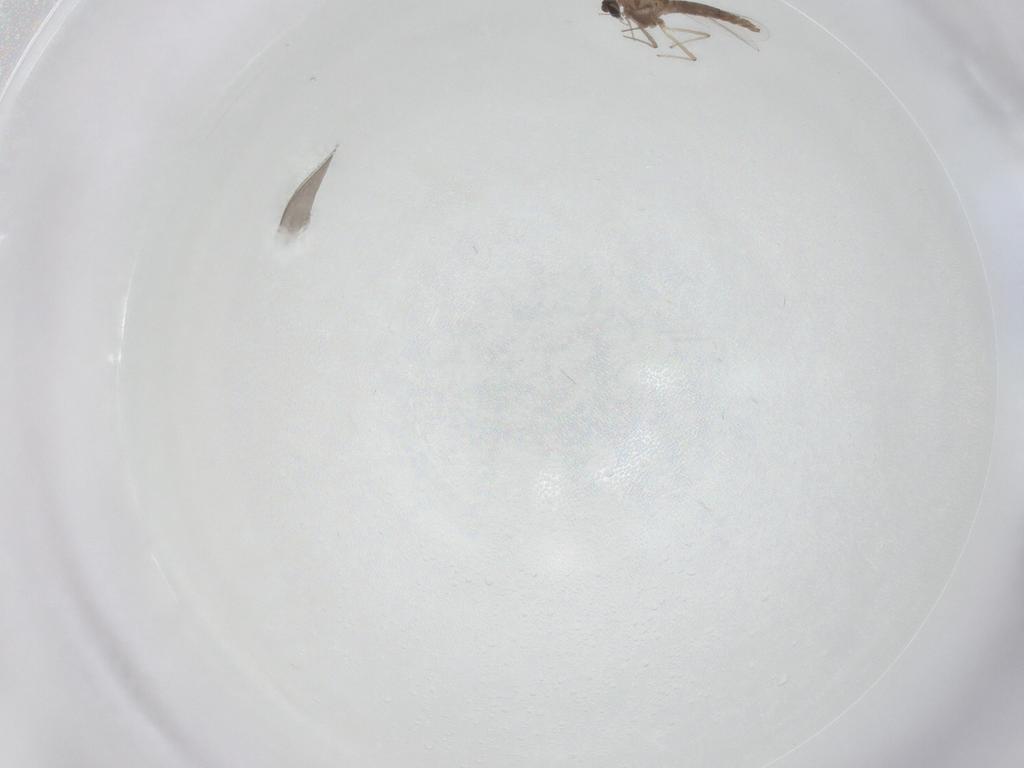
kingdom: Animalia
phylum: Arthropoda
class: Insecta
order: Diptera
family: Chironomidae
